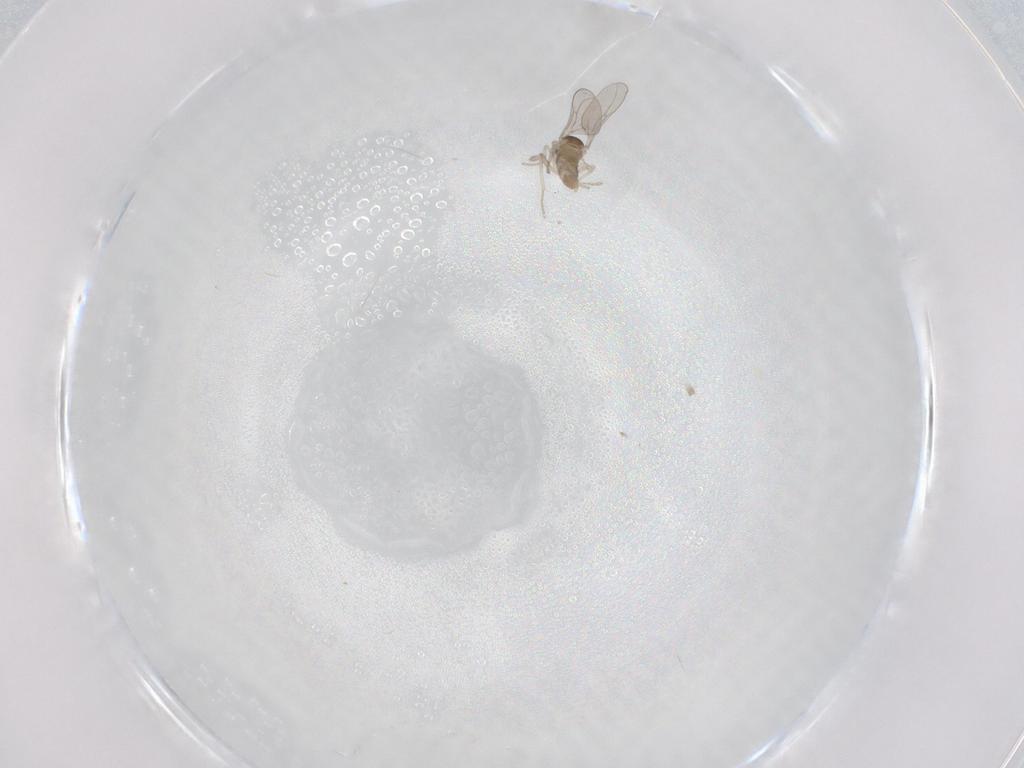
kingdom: Animalia
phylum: Arthropoda
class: Insecta
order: Diptera
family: Cecidomyiidae
